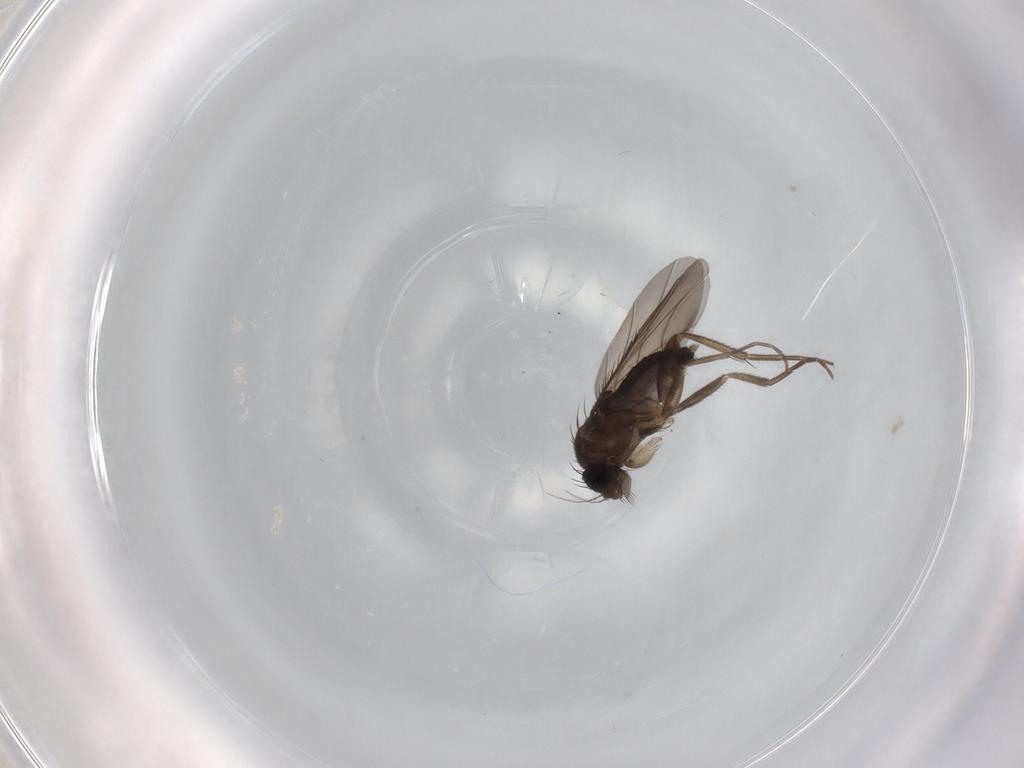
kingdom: Animalia
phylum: Arthropoda
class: Insecta
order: Diptera
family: Phoridae
